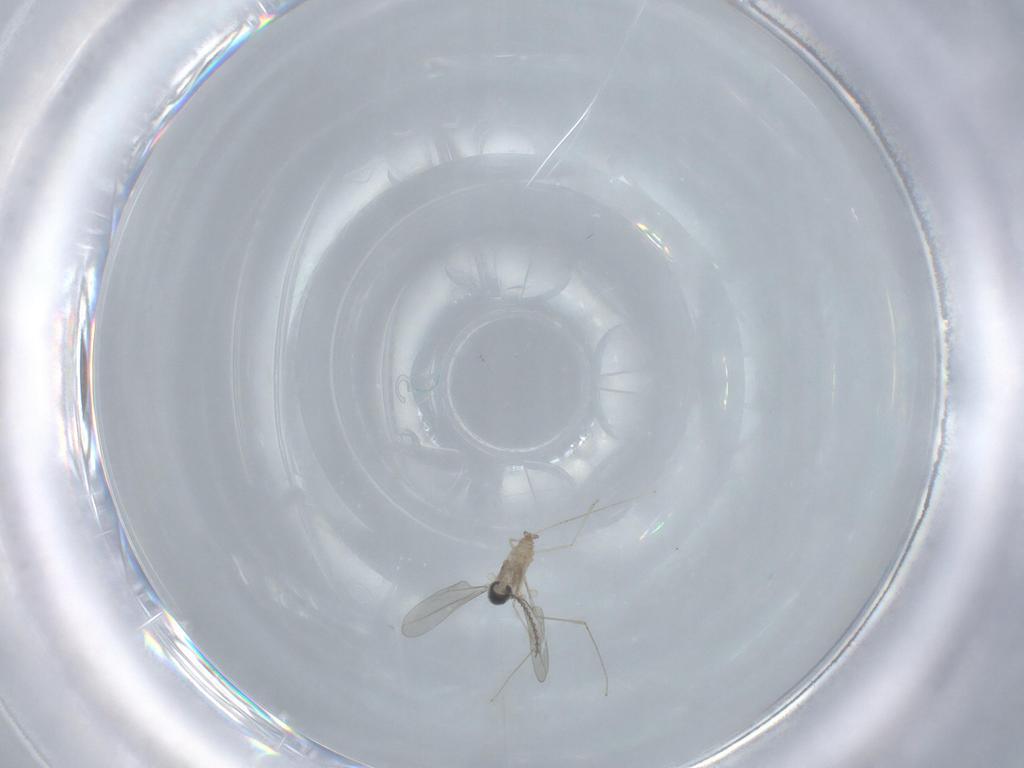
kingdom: Animalia
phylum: Arthropoda
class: Insecta
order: Diptera
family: Cecidomyiidae
